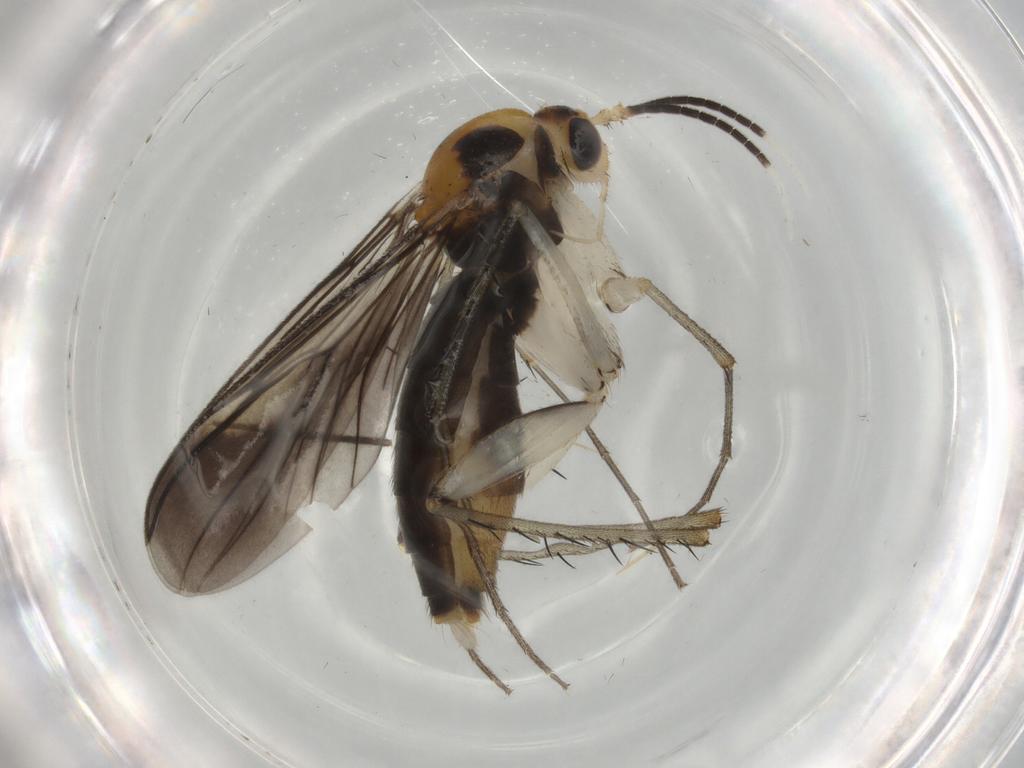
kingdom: Animalia
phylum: Arthropoda
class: Insecta
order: Diptera
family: Mycetophilidae
